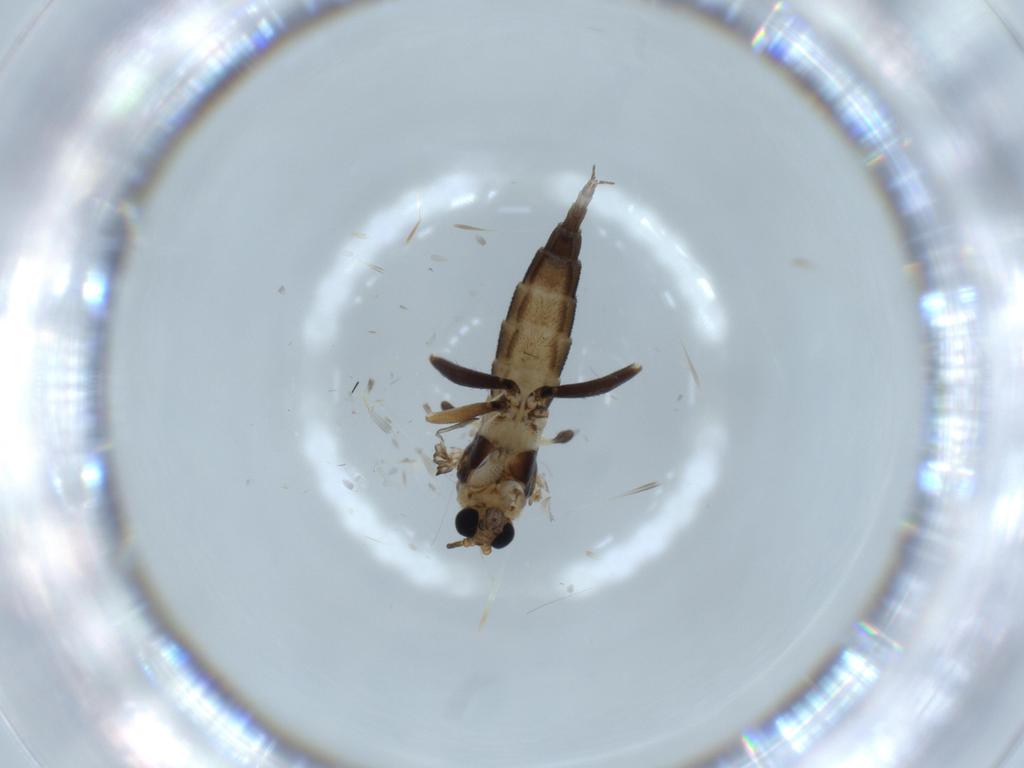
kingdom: Animalia
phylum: Arthropoda
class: Insecta
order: Diptera
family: Sciaridae
